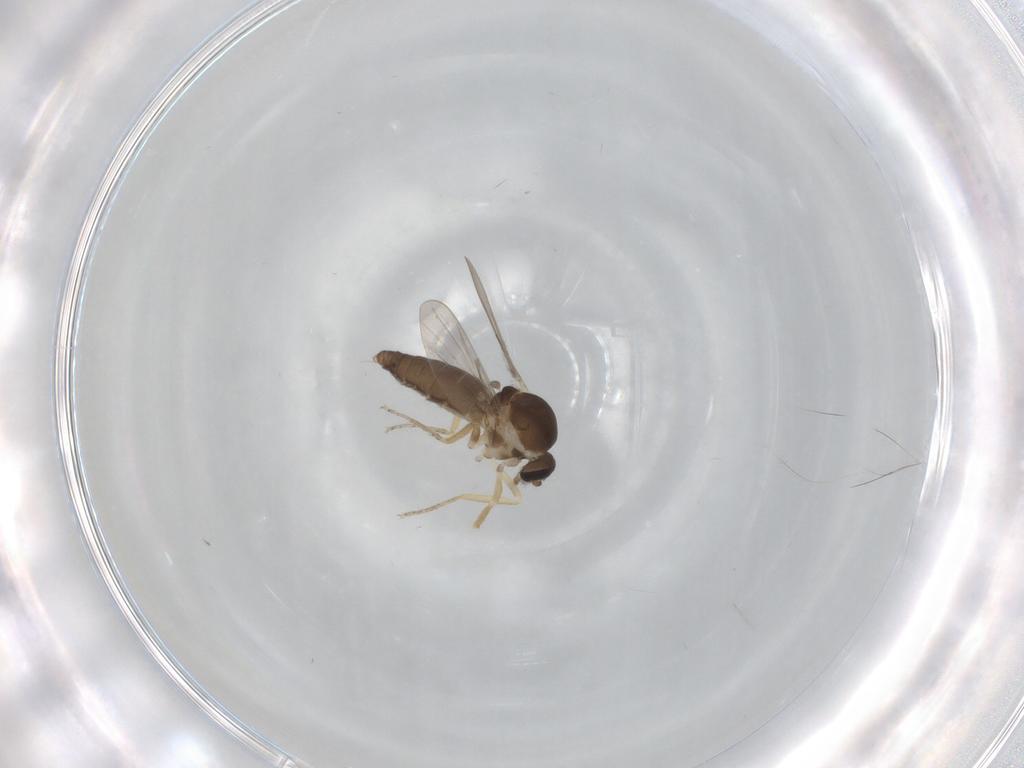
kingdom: Animalia
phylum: Arthropoda
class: Insecta
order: Diptera
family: Ceratopogonidae
